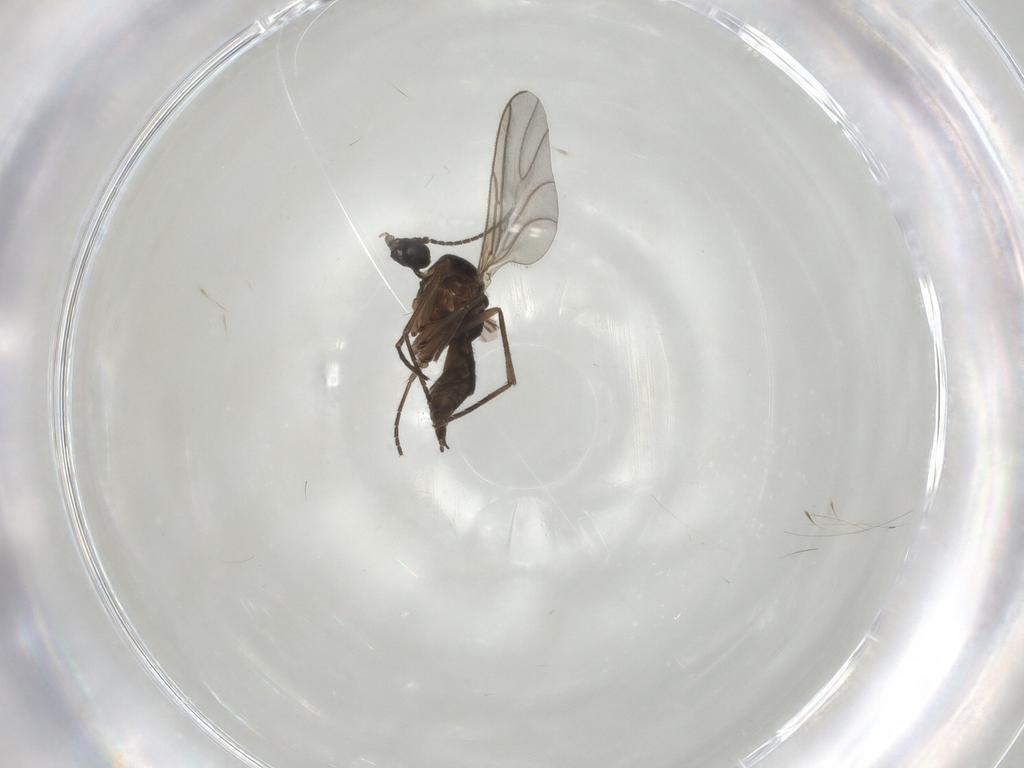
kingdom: Animalia
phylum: Arthropoda
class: Insecta
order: Diptera
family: Sciaridae
